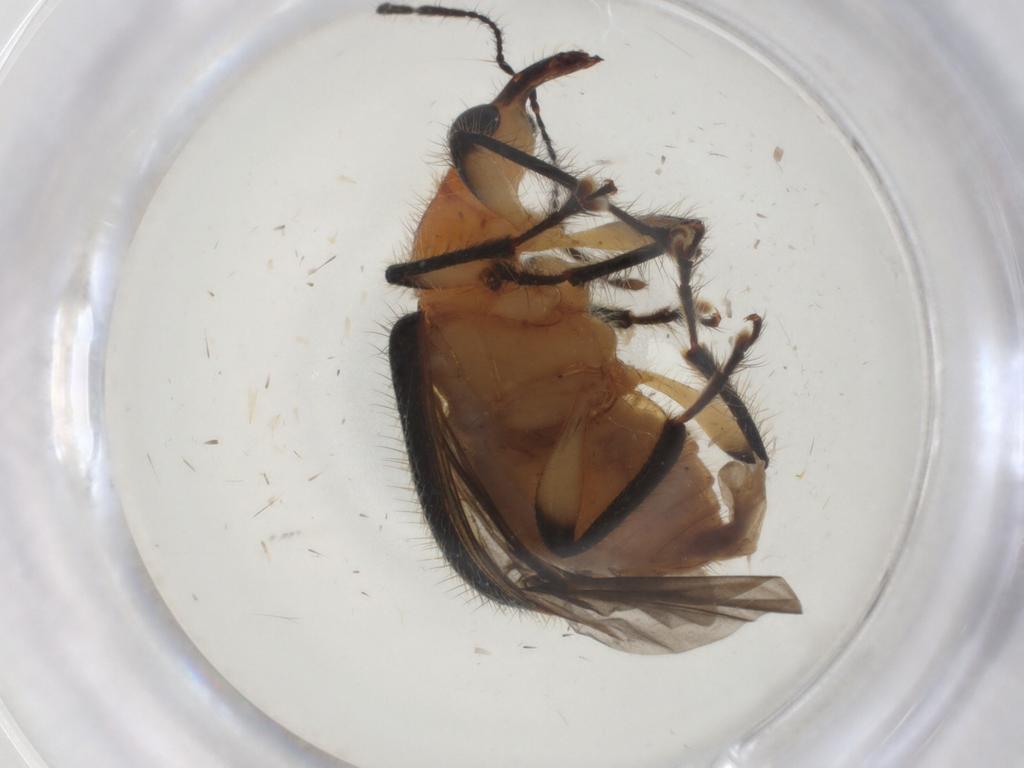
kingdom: Animalia
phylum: Arthropoda
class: Insecta
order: Coleoptera
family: Attelabidae
